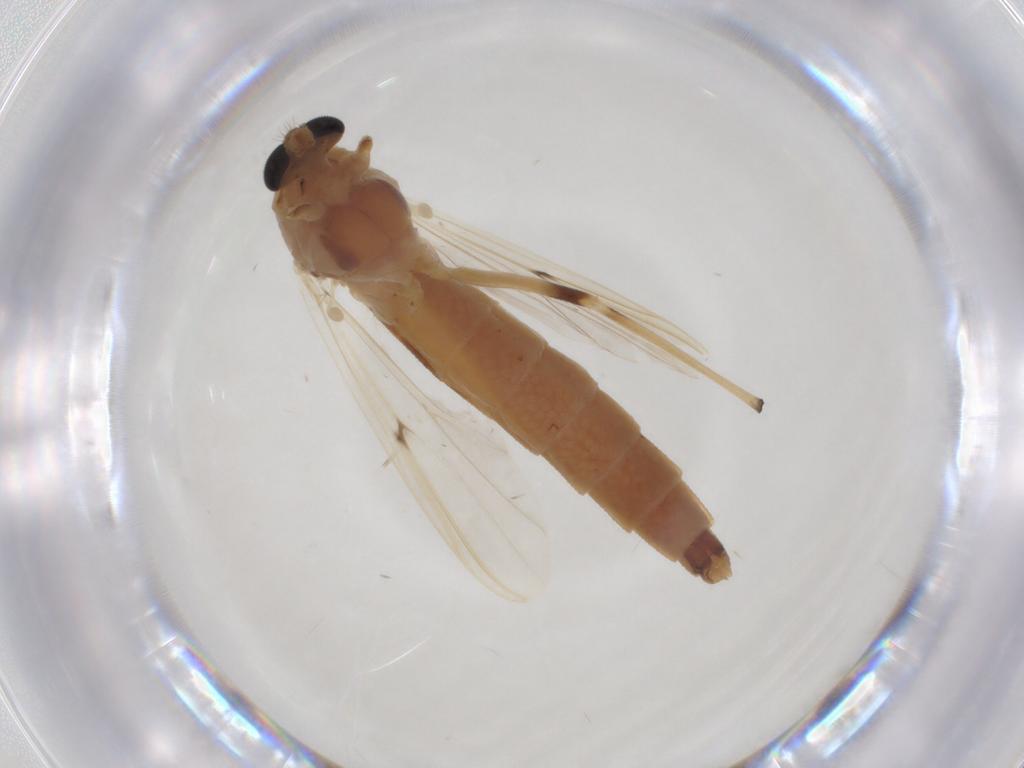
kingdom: Animalia
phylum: Arthropoda
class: Insecta
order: Diptera
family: Chironomidae
